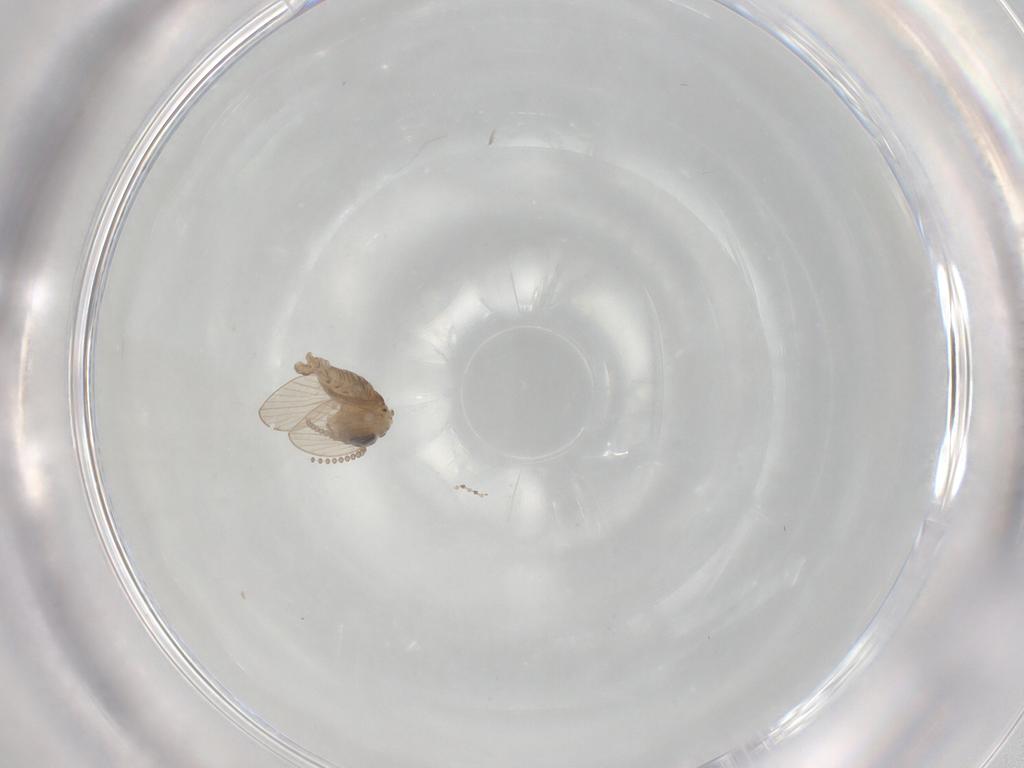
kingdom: Animalia
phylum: Arthropoda
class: Insecta
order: Diptera
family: Psychodidae
